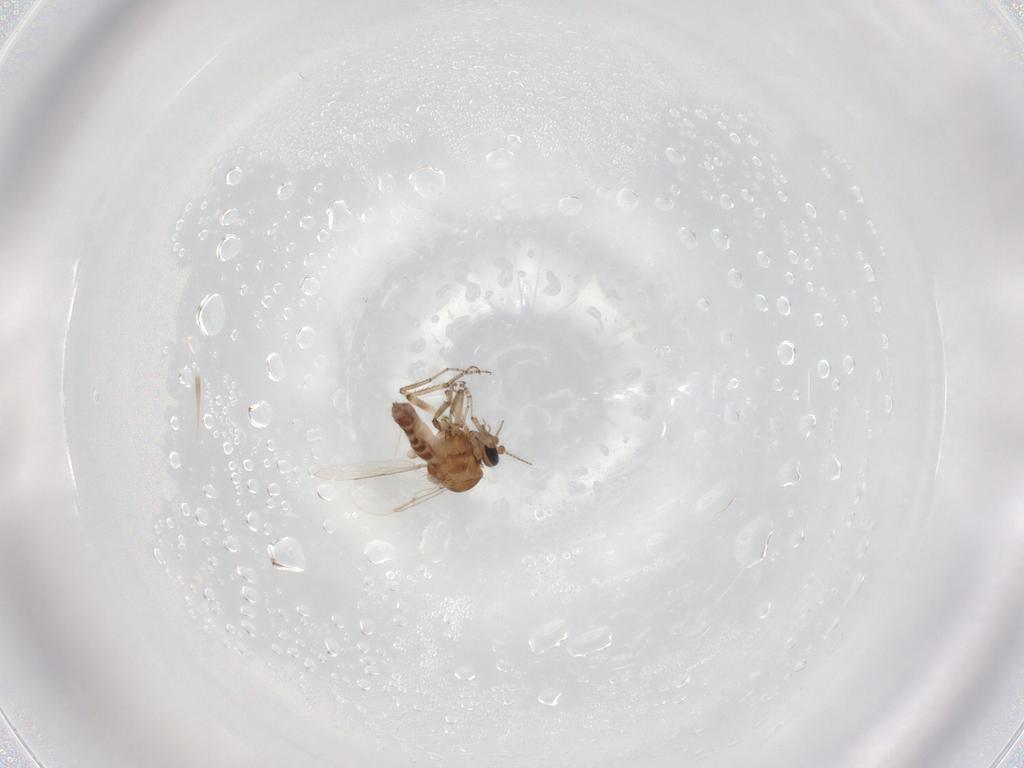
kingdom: Animalia
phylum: Arthropoda
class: Insecta
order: Diptera
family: Ceratopogonidae
